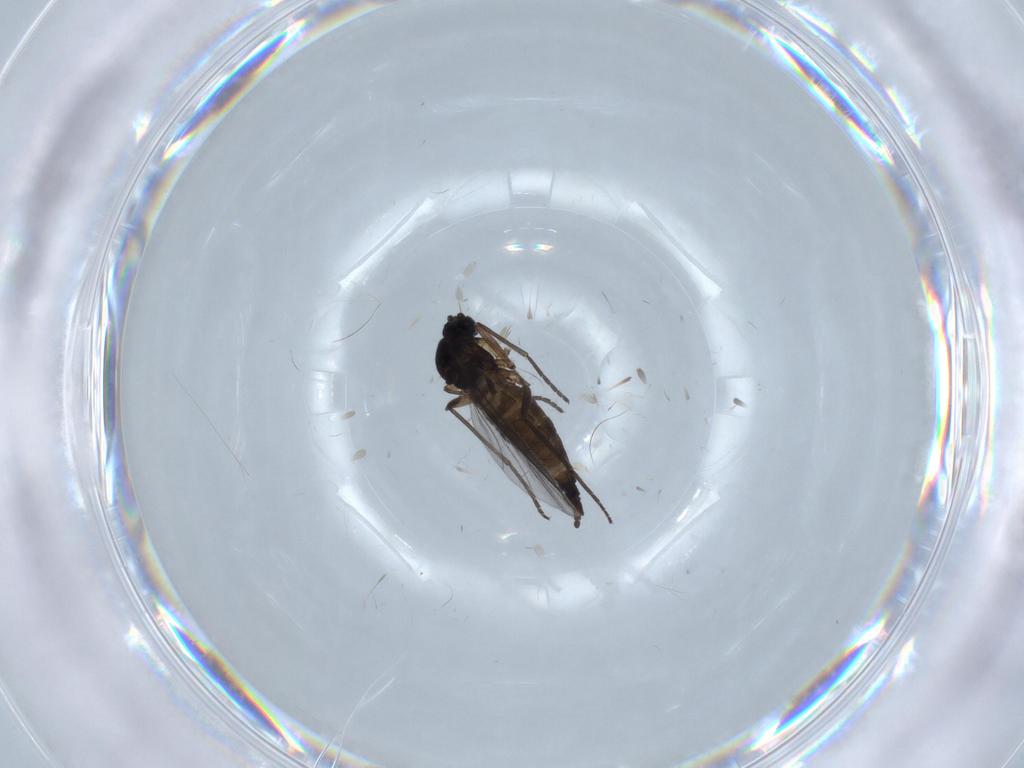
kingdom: Animalia
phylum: Arthropoda
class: Insecta
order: Diptera
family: Sciaridae
